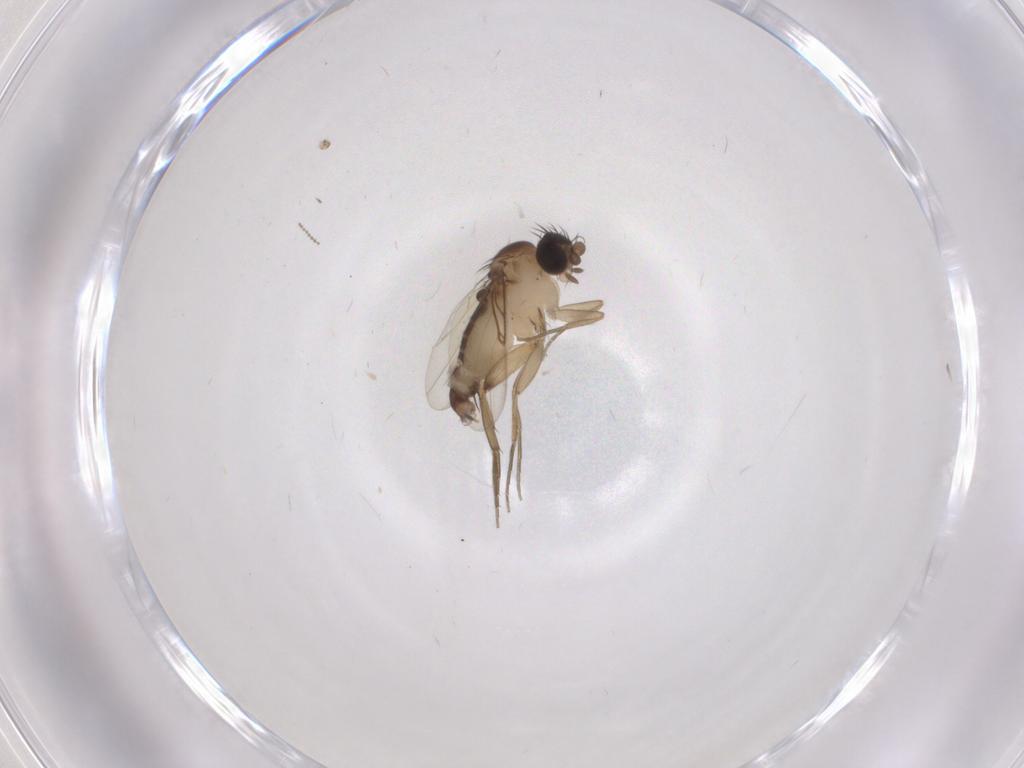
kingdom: Animalia
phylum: Arthropoda
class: Insecta
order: Diptera
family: Phoridae
